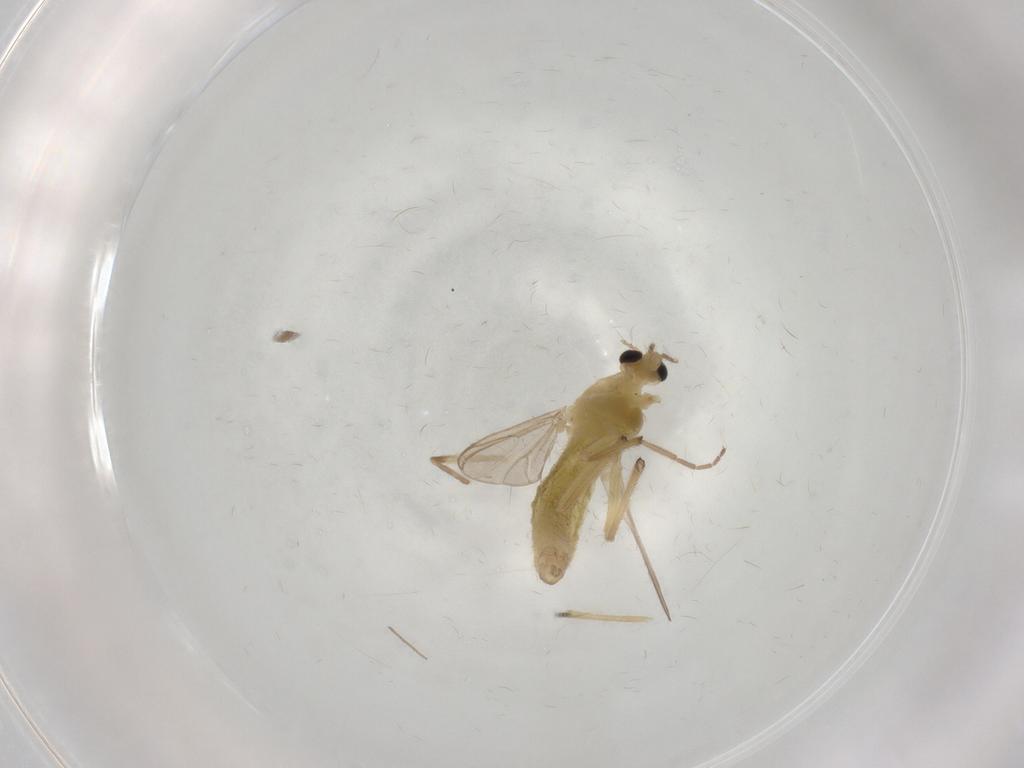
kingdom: Animalia
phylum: Arthropoda
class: Insecta
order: Diptera
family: Chironomidae
